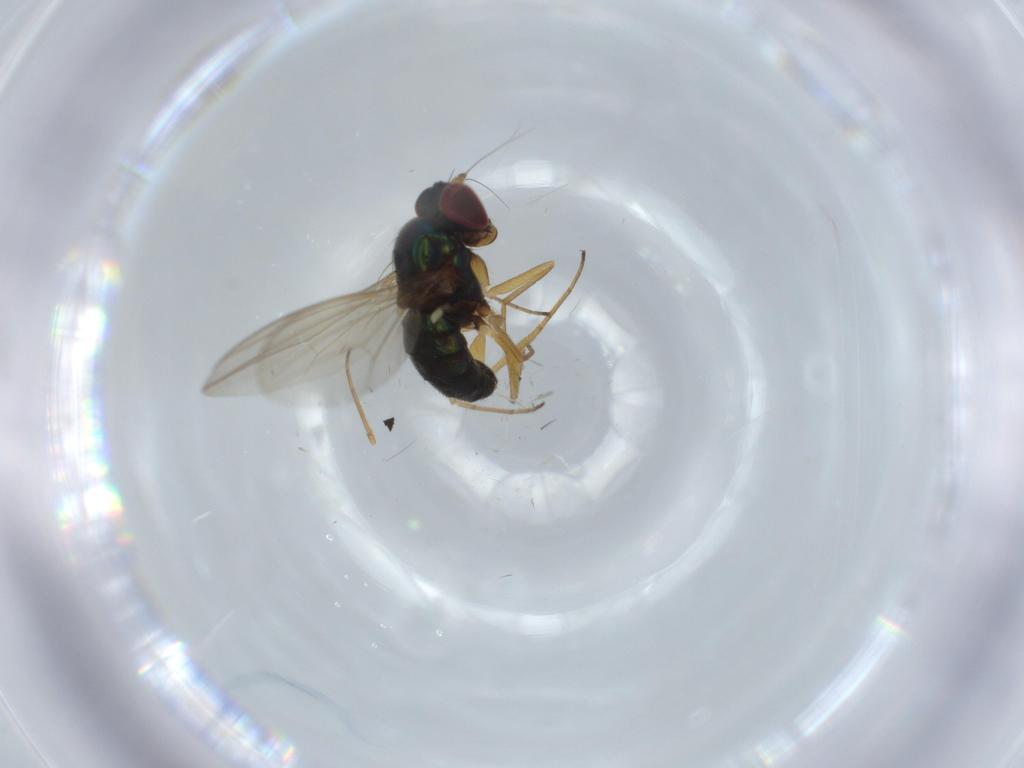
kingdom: Animalia
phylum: Arthropoda
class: Insecta
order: Diptera
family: Dolichopodidae
